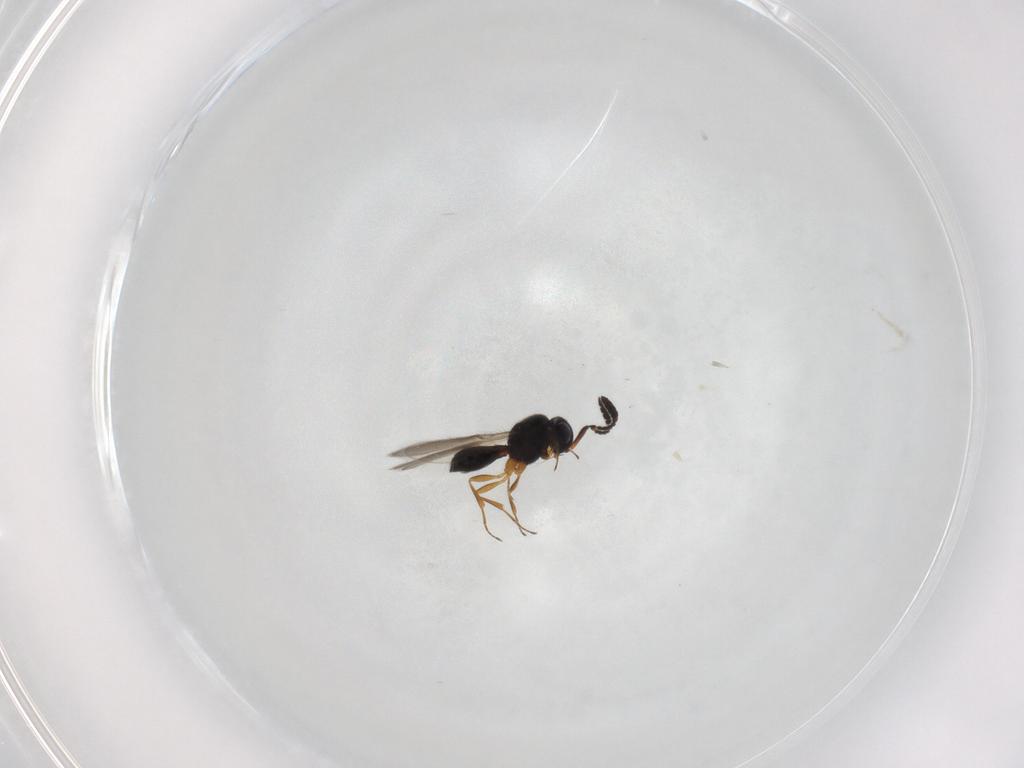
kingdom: Animalia
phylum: Arthropoda
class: Insecta
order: Hymenoptera
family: Scelionidae
